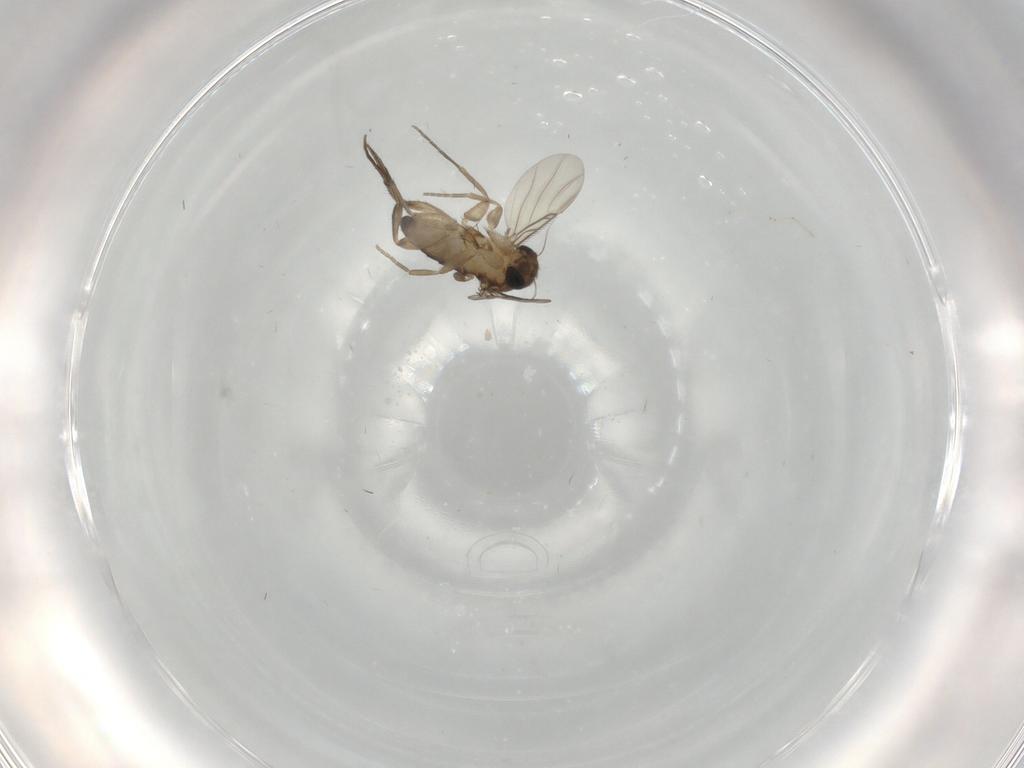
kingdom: Animalia
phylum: Arthropoda
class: Insecta
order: Diptera
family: Phoridae
